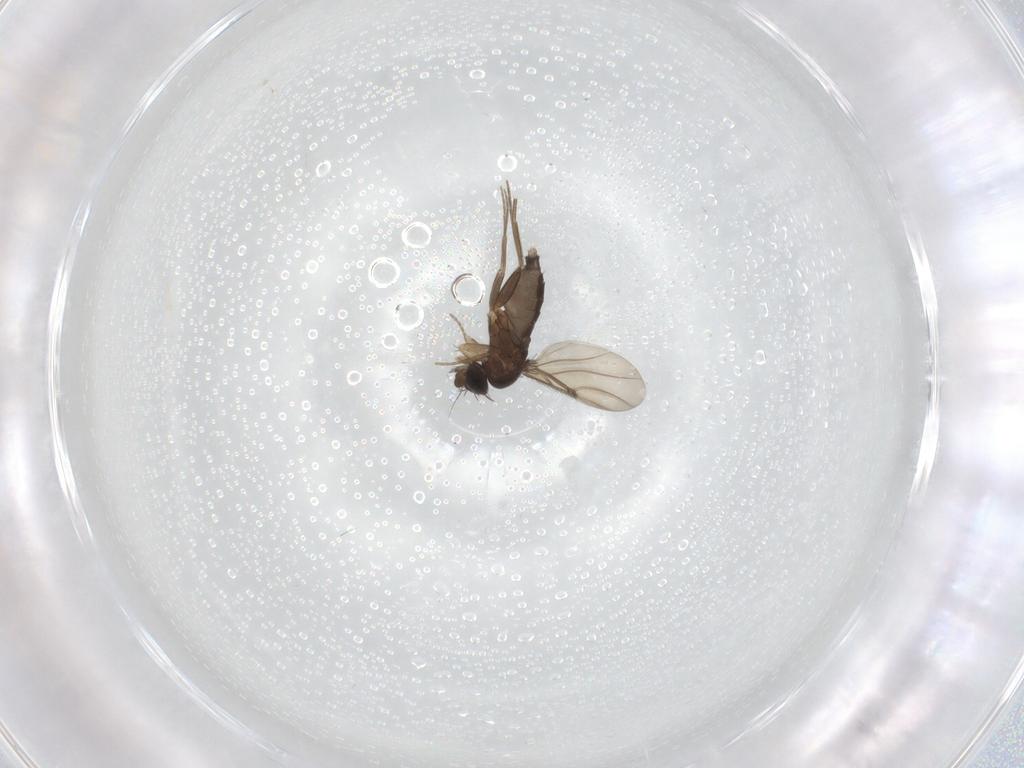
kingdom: Animalia
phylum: Arthropoda
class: Insecta
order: Diptera
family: Phoridae
